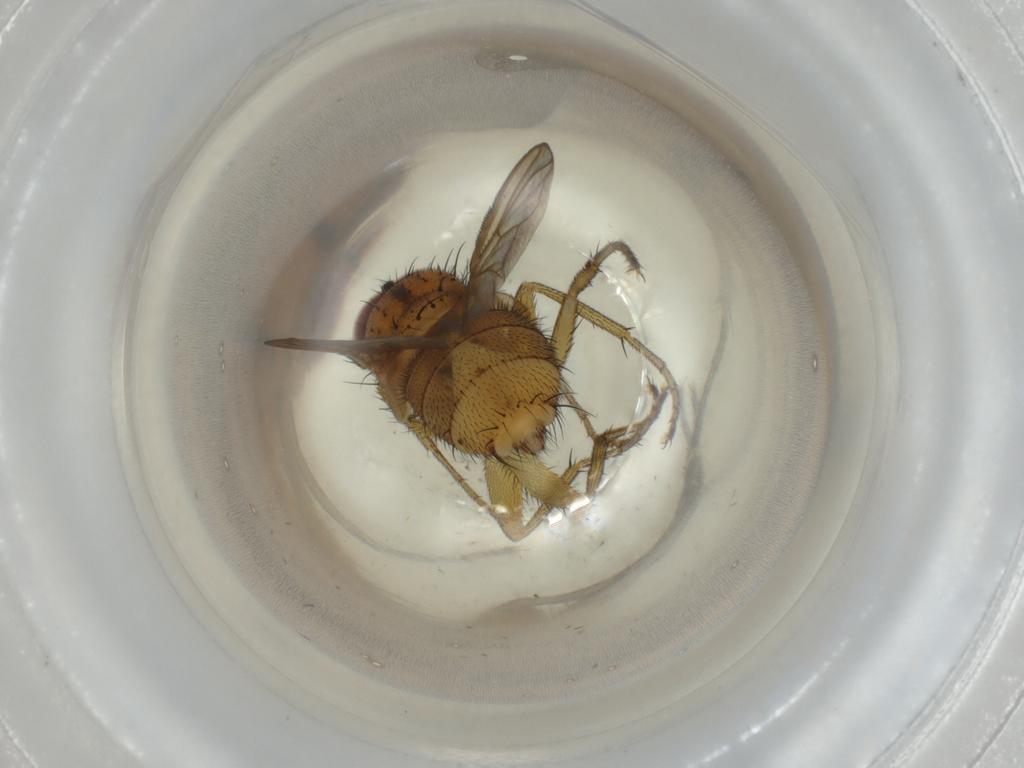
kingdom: Animalia
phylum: Arthropoda
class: Insecta
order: Diptera
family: Calliphoridae
